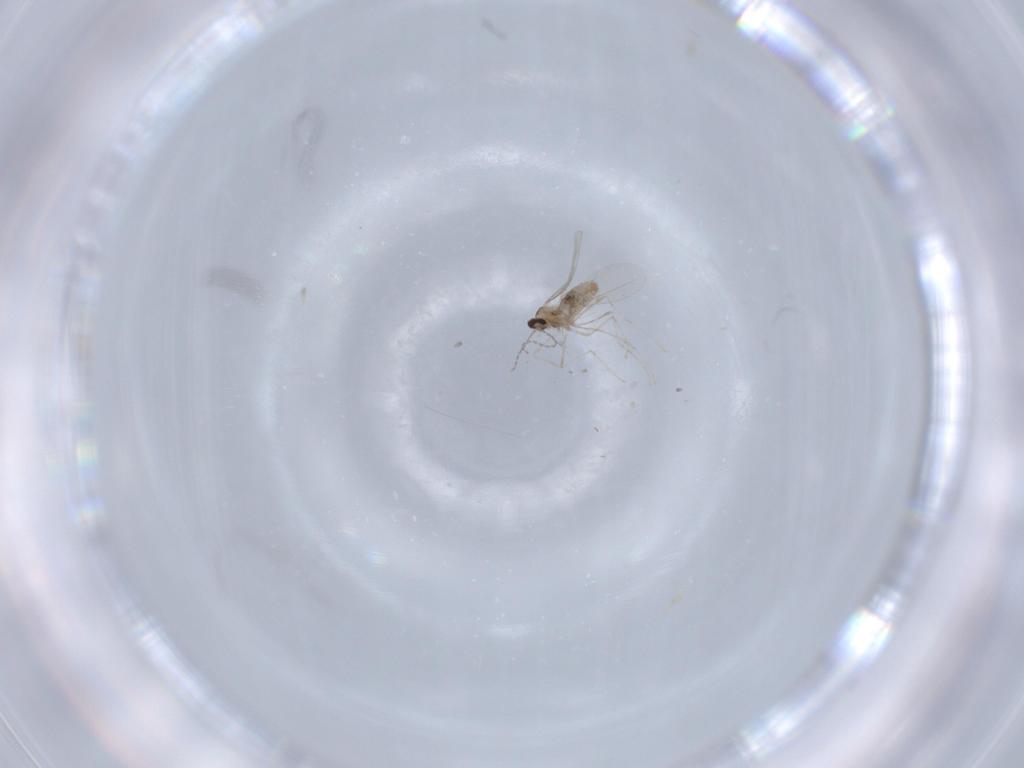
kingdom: Animalia
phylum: Arthropoda
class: Insecta
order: Diptera
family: Cecidomyiidae
